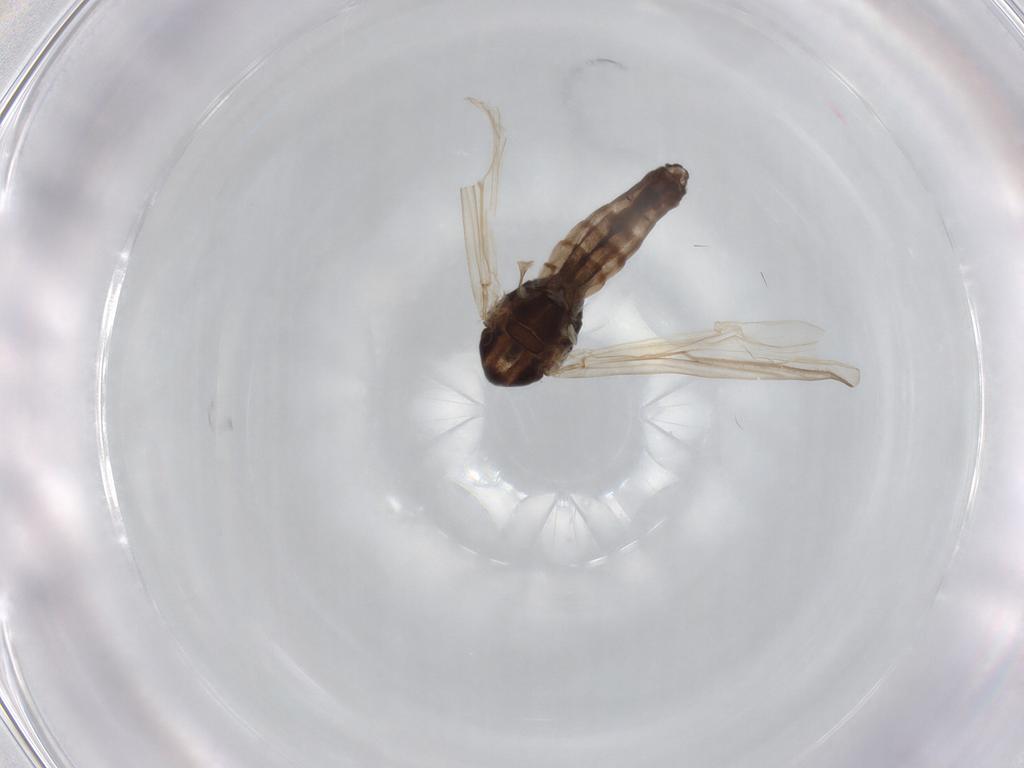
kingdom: Animalia
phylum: Arthropoda
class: Insecta
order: Diptera
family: Chironomidae
